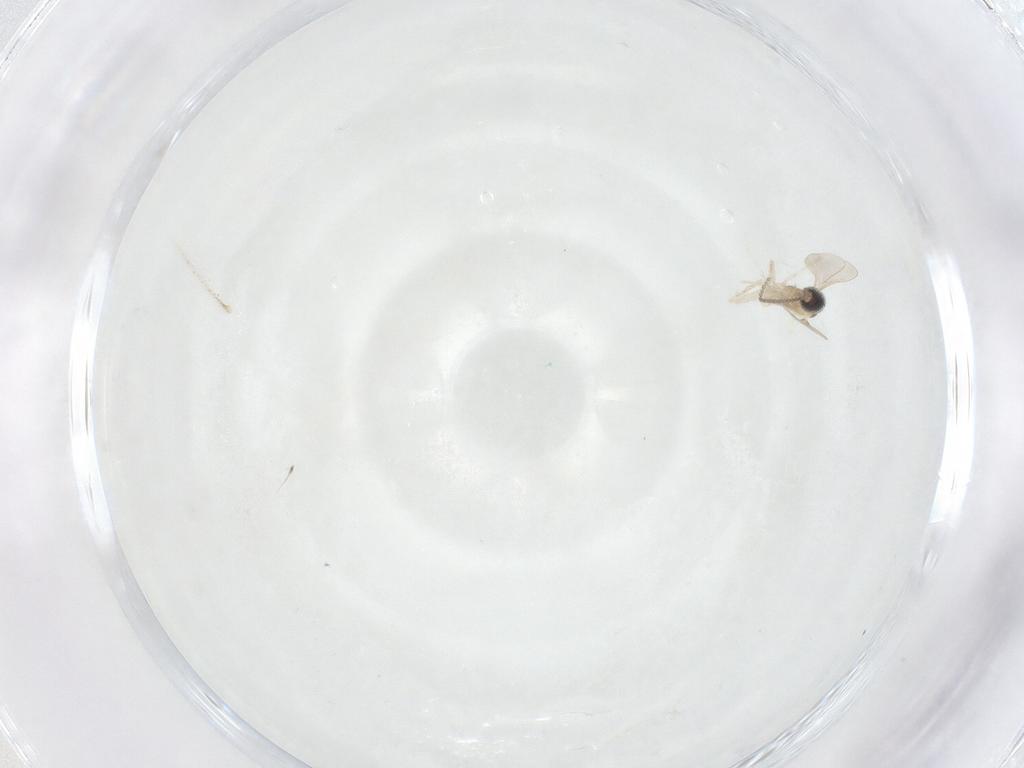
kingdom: Animalia
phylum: Arthropoda
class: Insecta
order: Diptera
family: Cecidomyiidae
